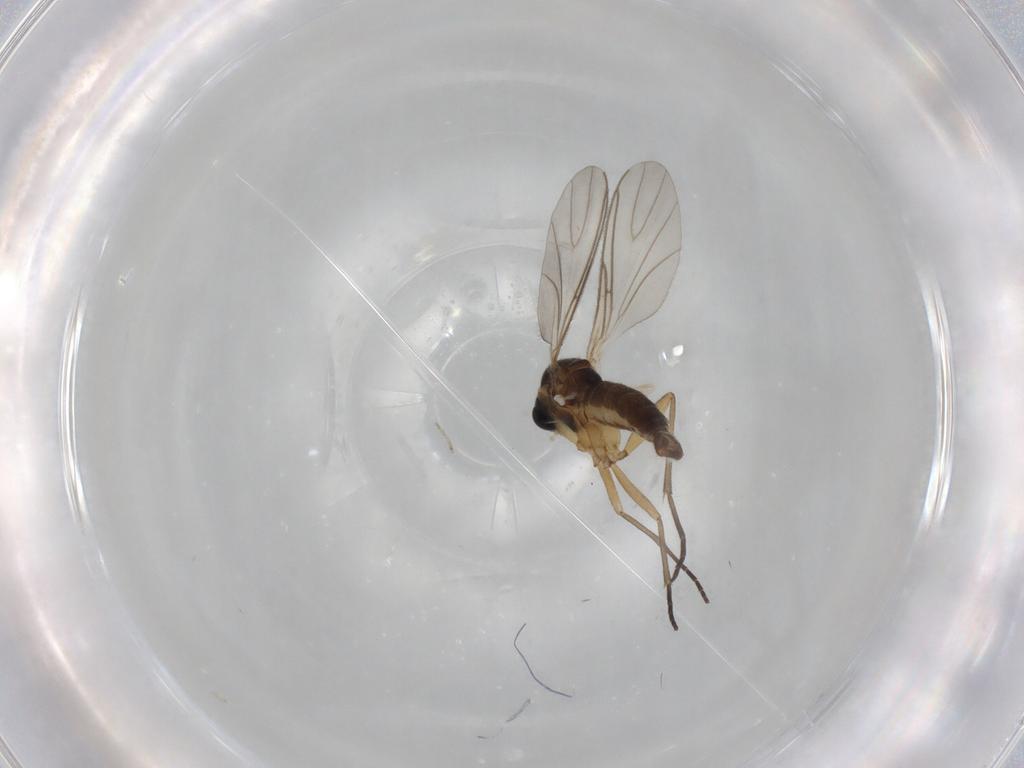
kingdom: Animalia
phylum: Arthropoda
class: Insecta
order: Diptera
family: Sciaridae
